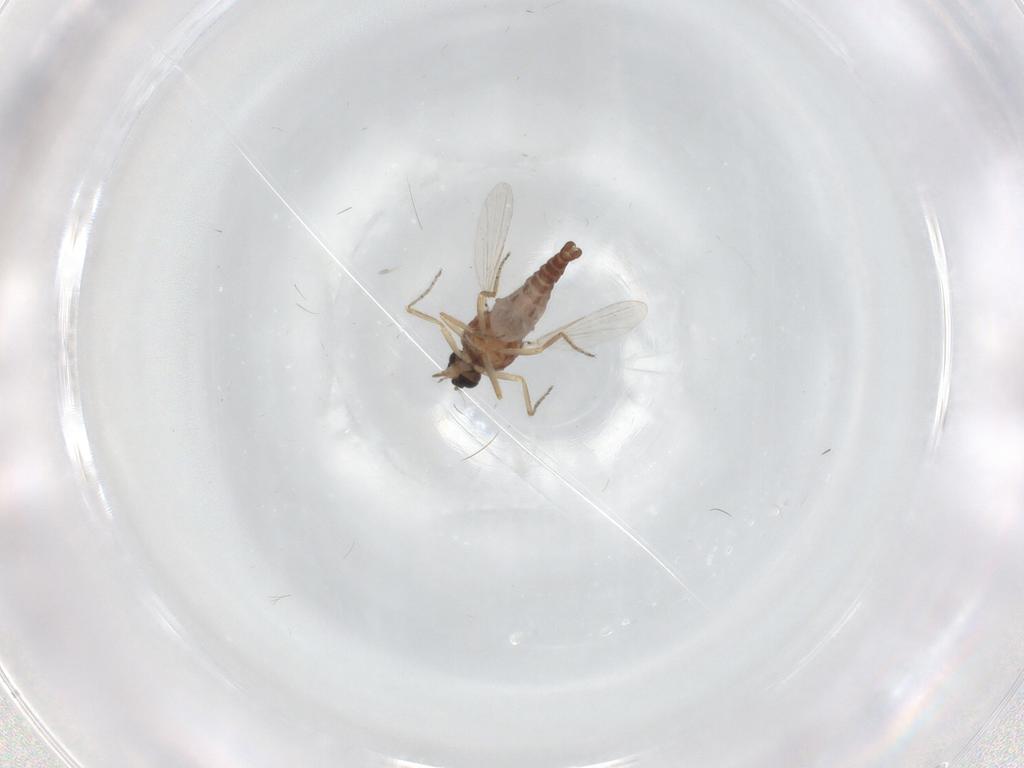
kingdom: Animalia
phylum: Arthropoda
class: Insecta
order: Diptera
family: Ceratopogonidae
